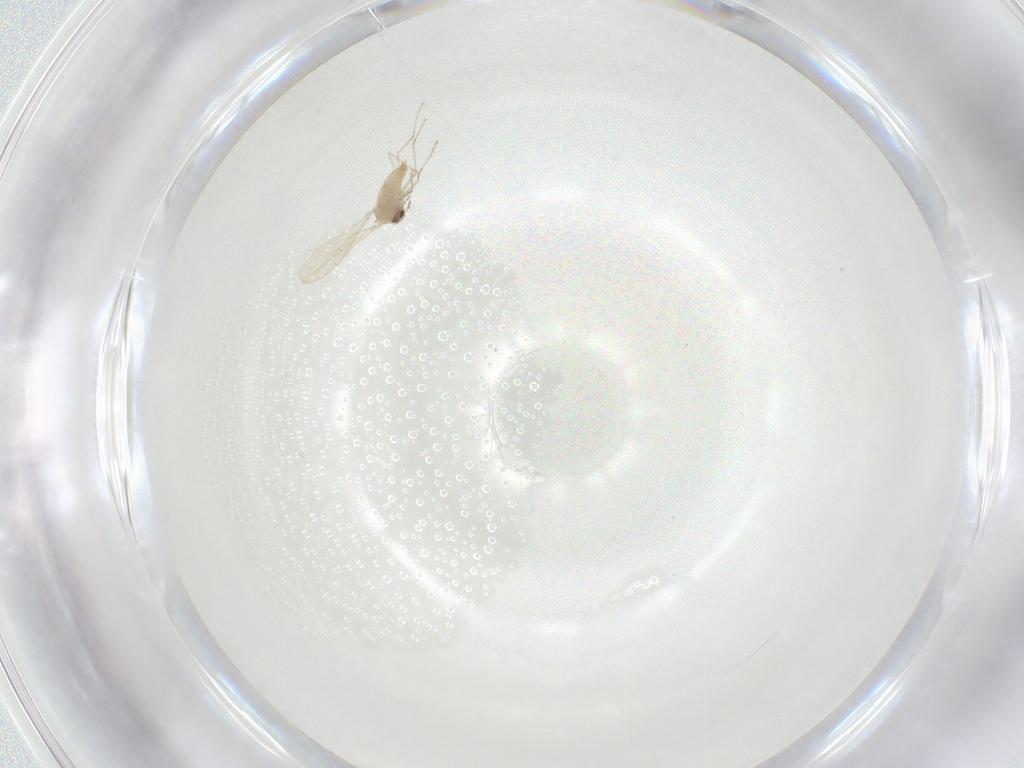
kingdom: Animalia
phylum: Arthropoda
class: Insecta
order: Diptera
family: Cecidomyiidae
